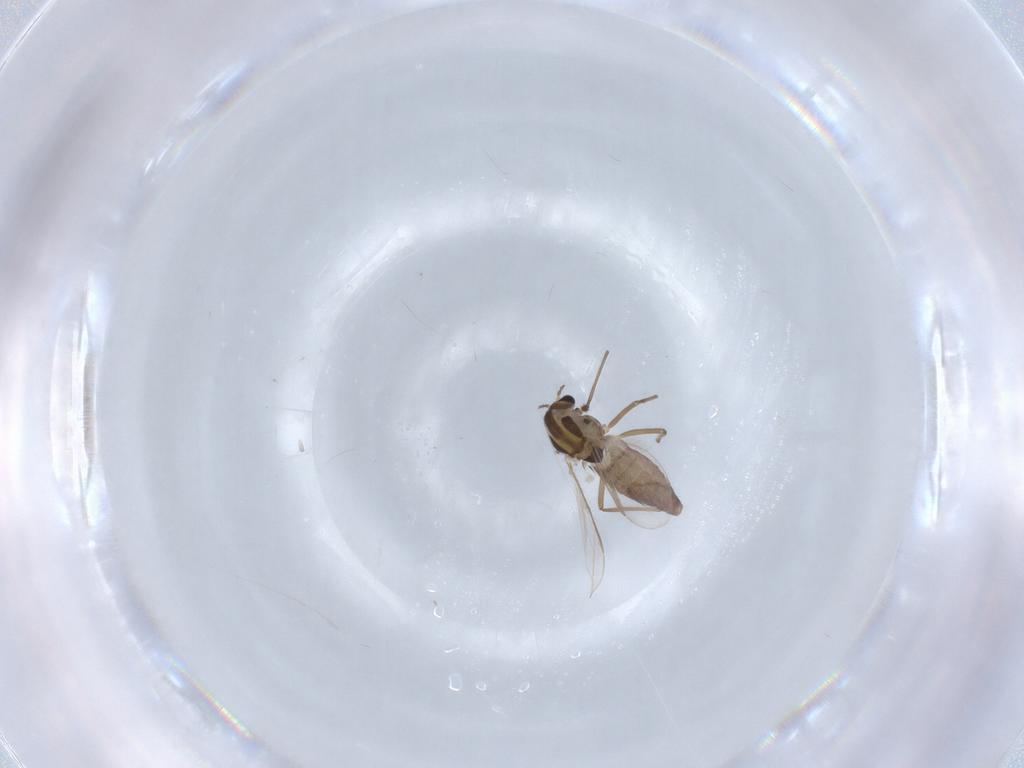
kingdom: Animalia
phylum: Arthropoda
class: Insecta
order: Diptera
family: Chironomidae
